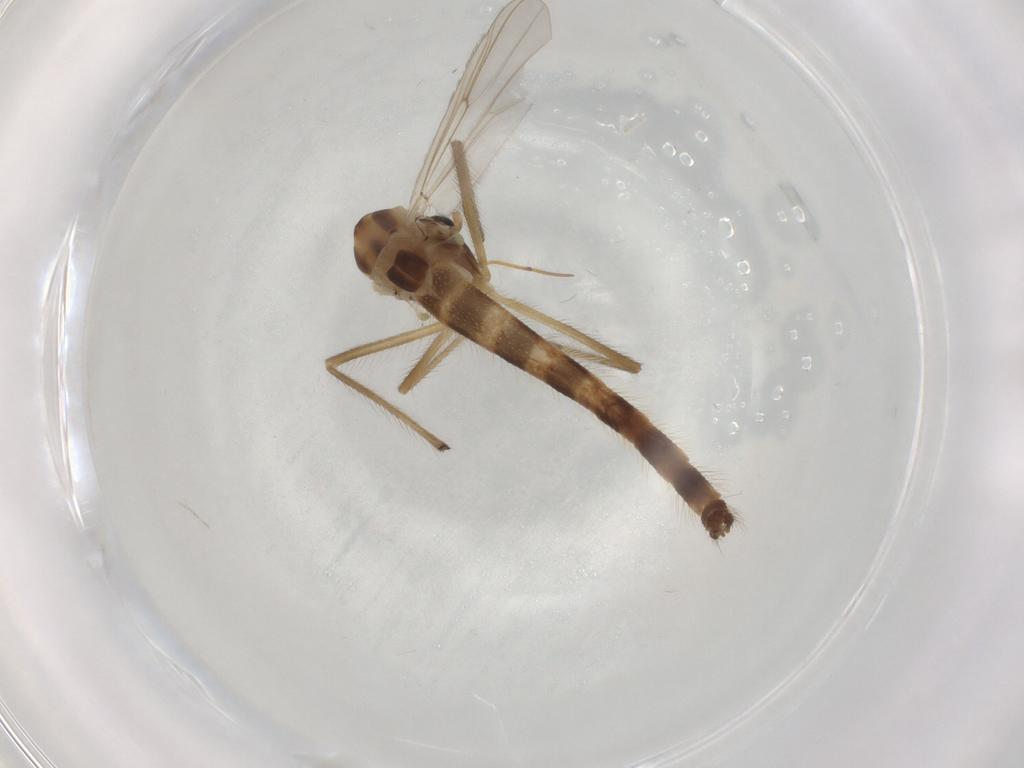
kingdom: Animalia
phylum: Arthropoda
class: Insecta
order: Diptera
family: Chironomidae
